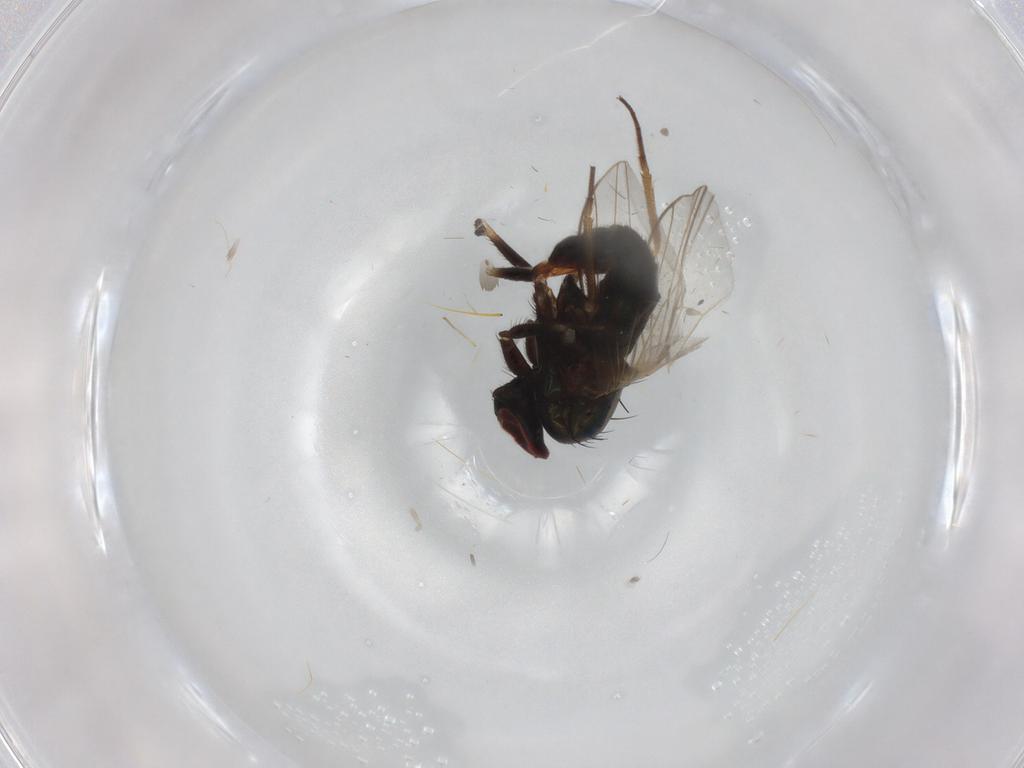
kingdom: Animalia
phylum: Arthropoda
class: Insecta
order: Diptera
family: Dolichopodidae
